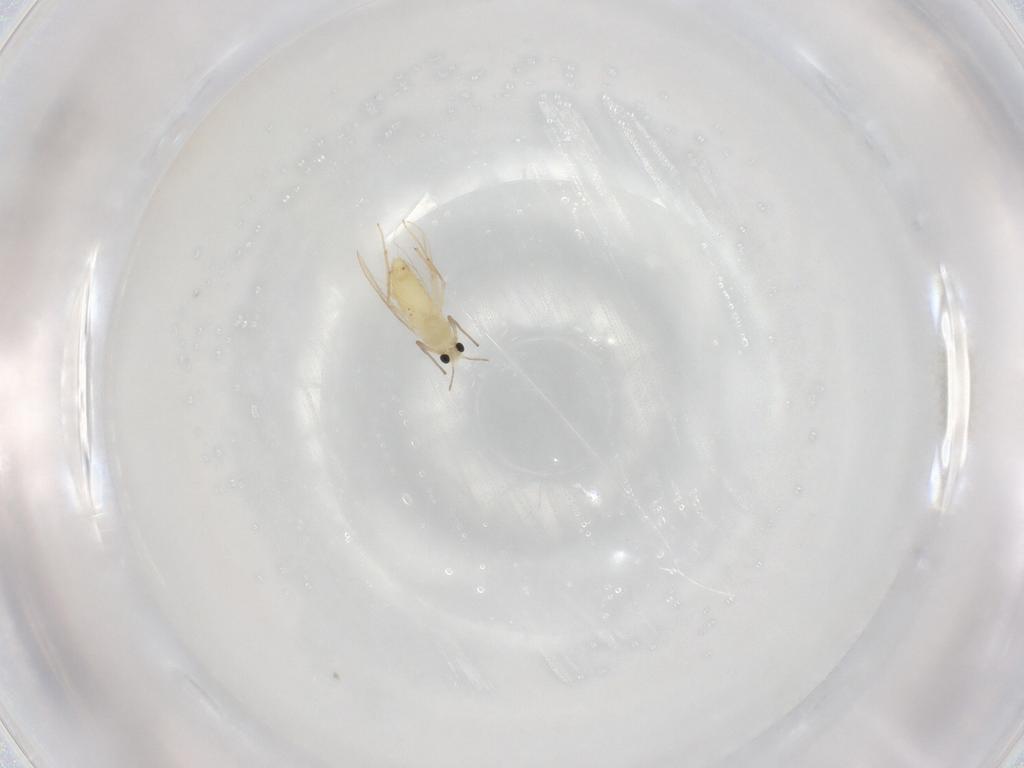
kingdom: Animalia
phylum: Arthropoda
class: Insecta
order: Diptera
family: Chironomidae
